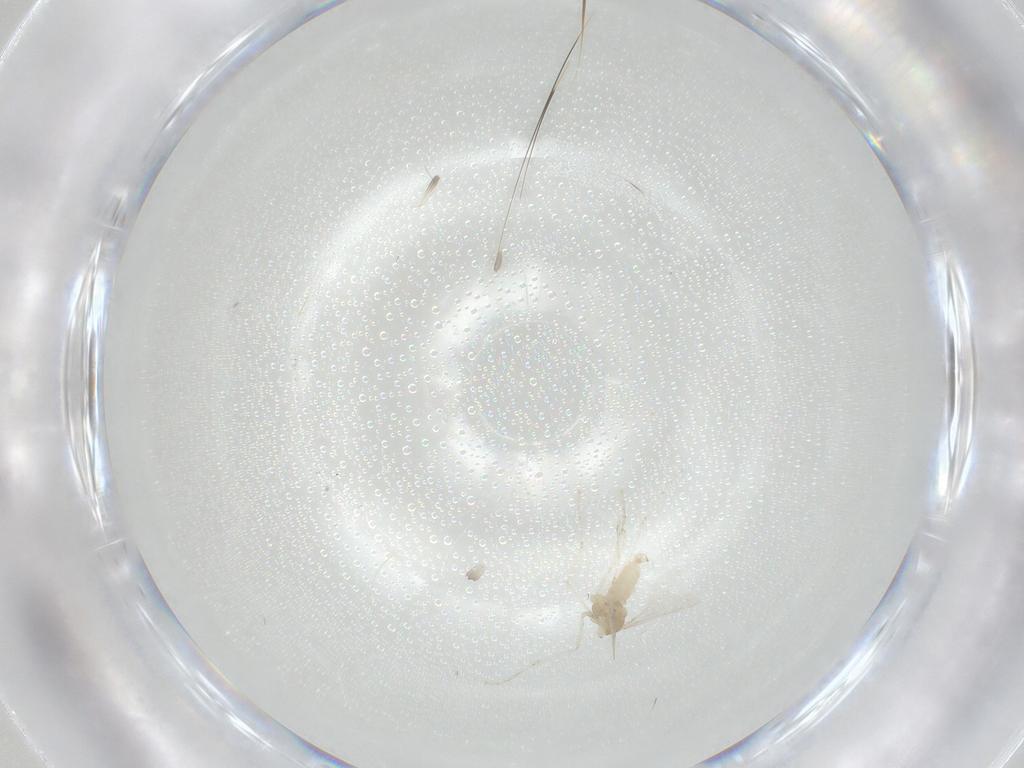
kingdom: Animalia
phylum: Arthropoda
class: Insecta
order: Diptera
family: Cecidomyiidae
